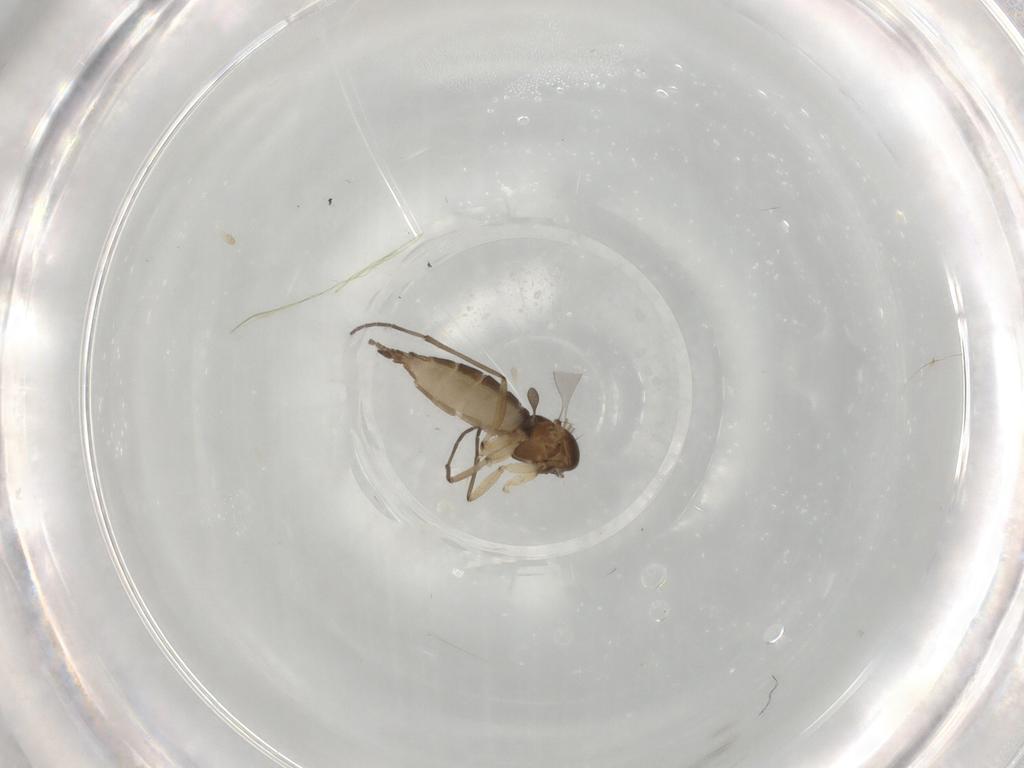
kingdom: Animalia
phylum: Arthropoda
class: Insecta
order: Diptera
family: Sciaridae
